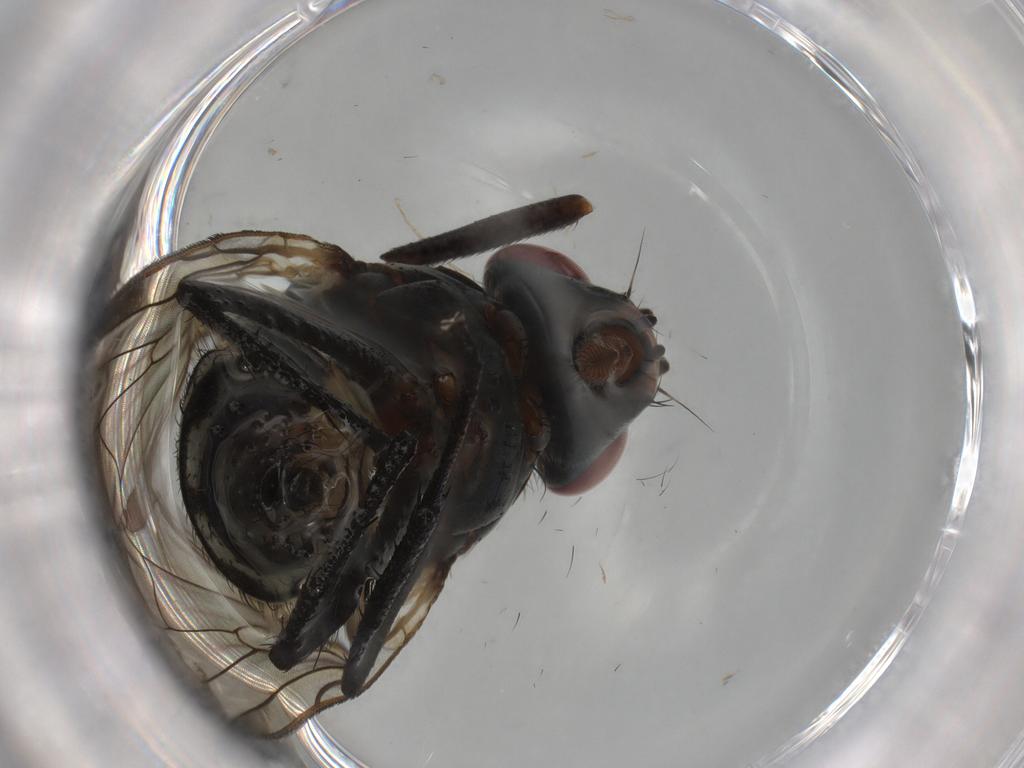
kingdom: Animalia
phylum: Arthropoda
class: Insecta
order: Diptera
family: Anthomyiidae
